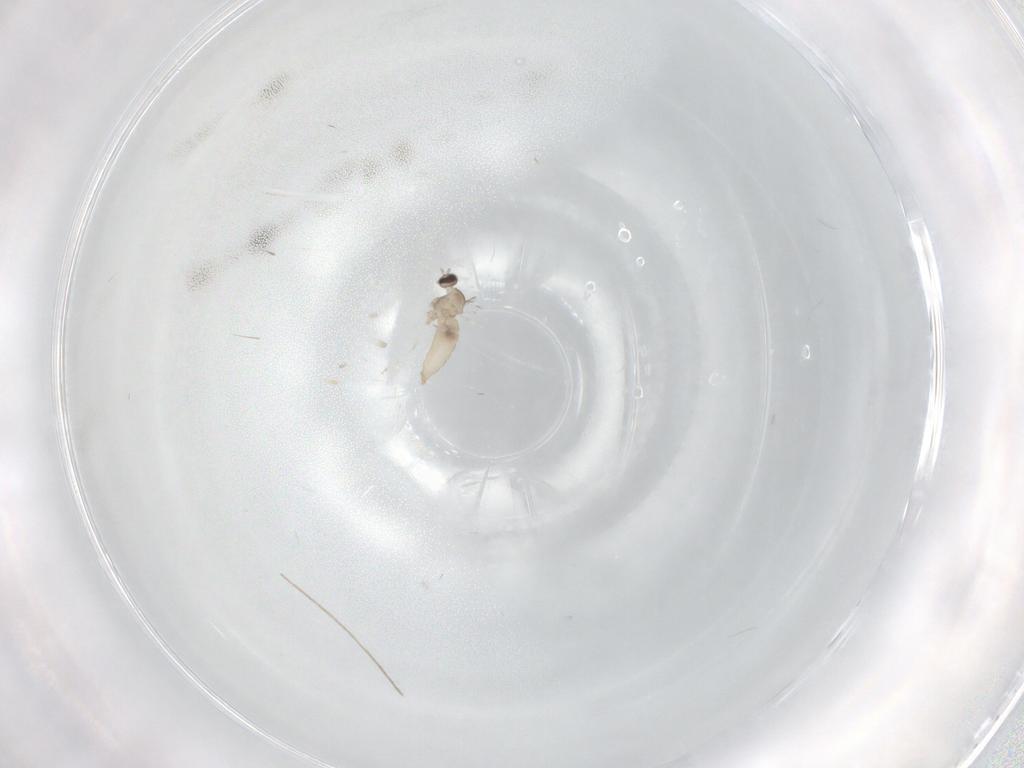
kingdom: Animalia
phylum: Arthropoda
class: Insecta
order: Diptera
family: Cecidomyiidae
